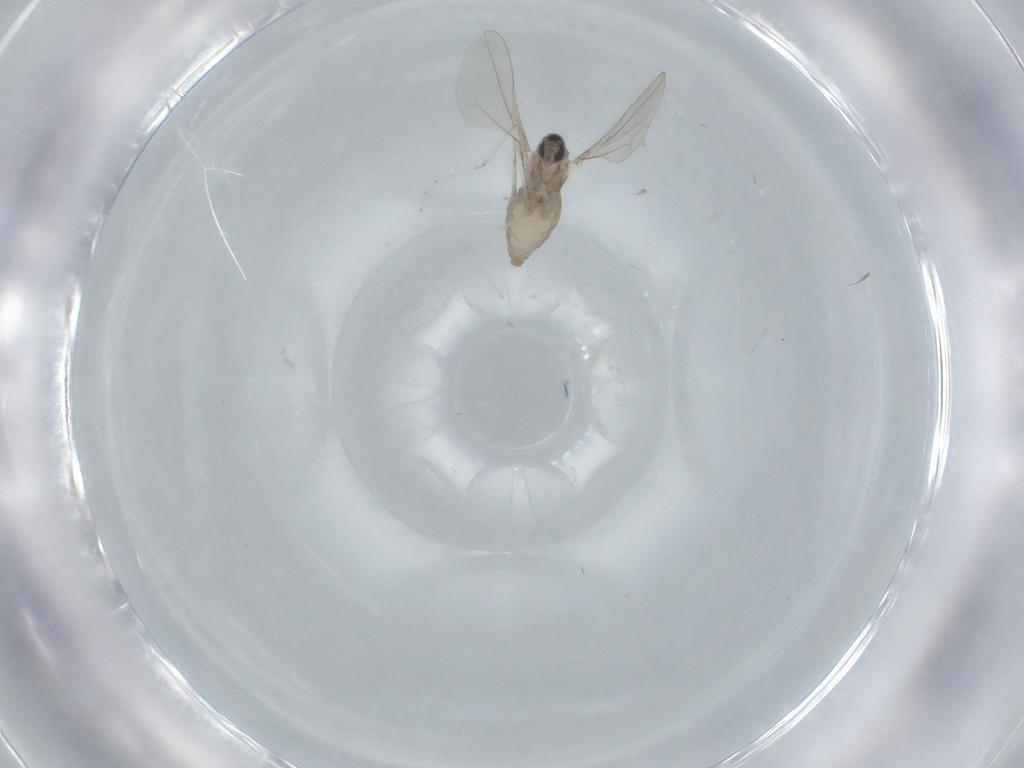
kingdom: Animalia
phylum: Arthropoda
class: Insecta
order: Diptera
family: Cecidomyiidae
